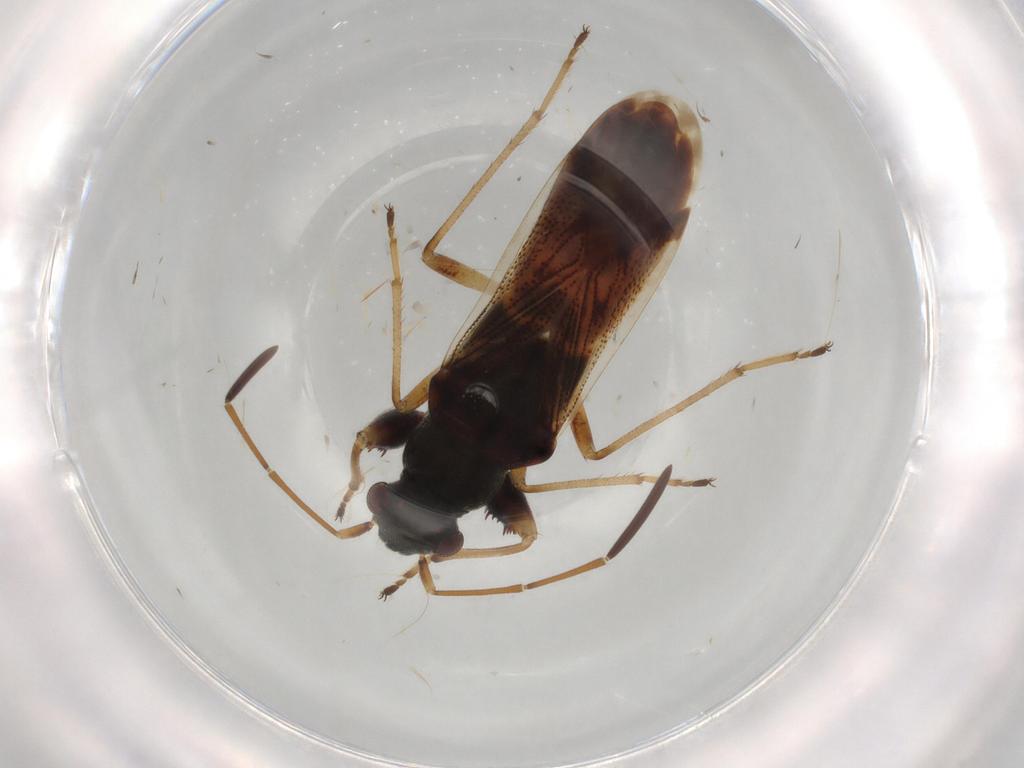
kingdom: Animalia
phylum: Arthropoda
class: Insecta
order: Hemiptera
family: Rhyparochromidae
